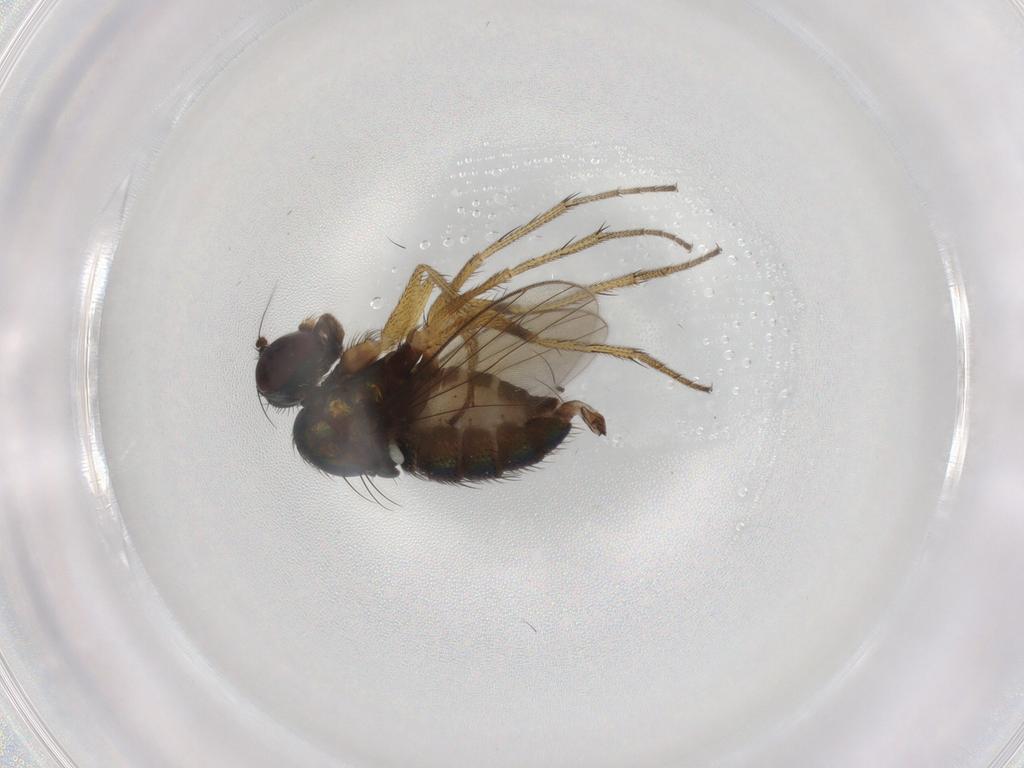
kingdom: Animalia
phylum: Arthropoda
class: Insecta
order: Diptera
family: Dolichopodidae
